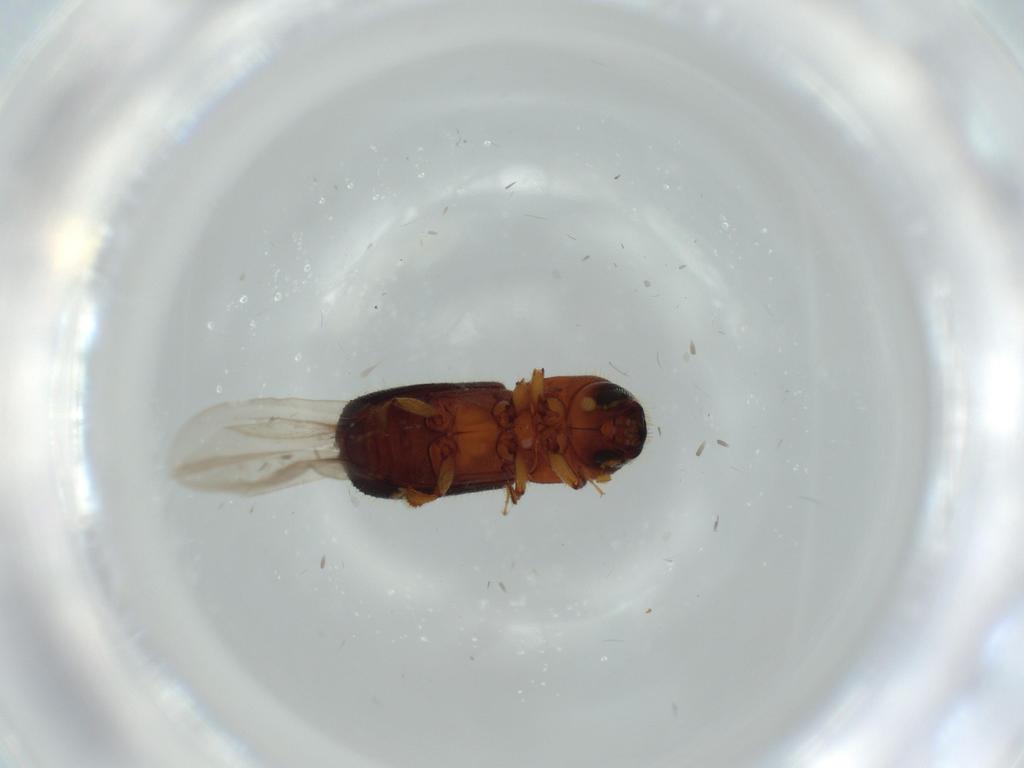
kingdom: Animalia
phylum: Arthropoda
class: Insecta
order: Coleoptera
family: Curculionidae
